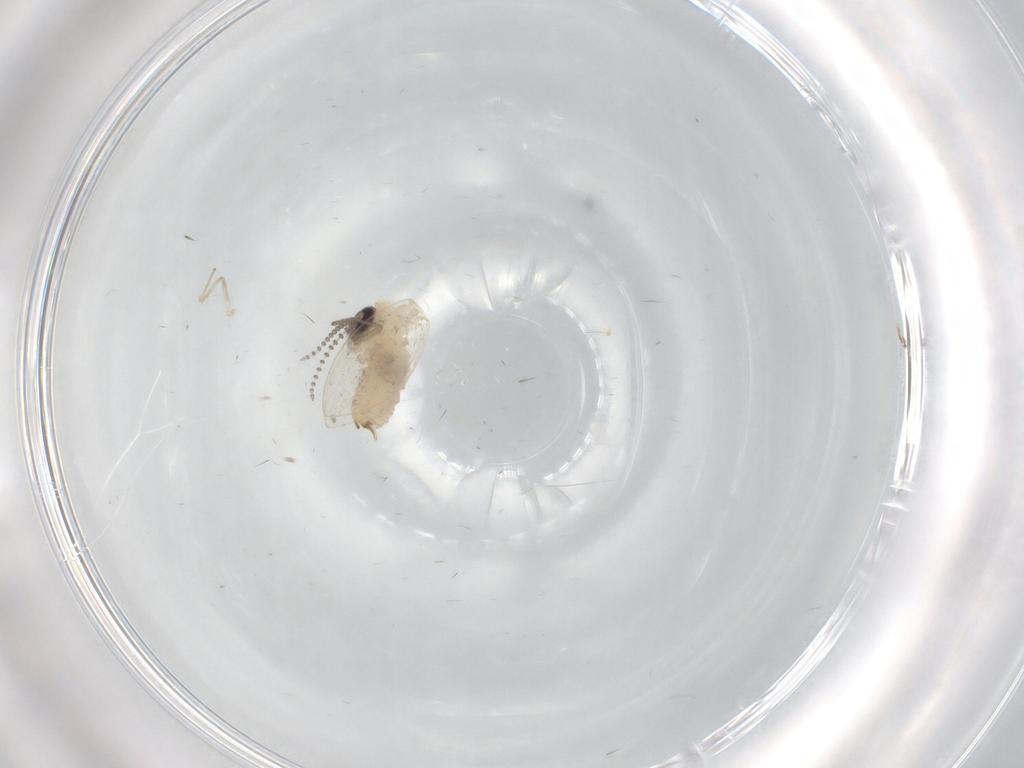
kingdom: Animalia
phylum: Arthropoda
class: Insecta
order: Diptera
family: Psychodidae
